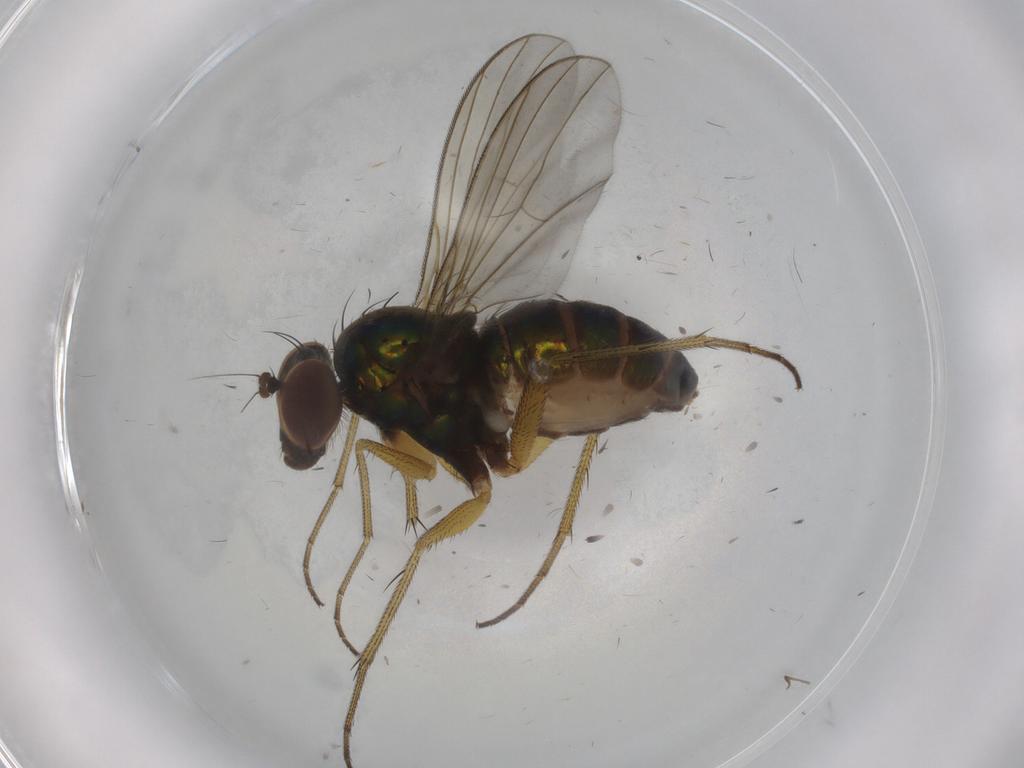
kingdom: Animalia
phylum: Arthropoda
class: Insecta
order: Diptera
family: Dolichopodidae
